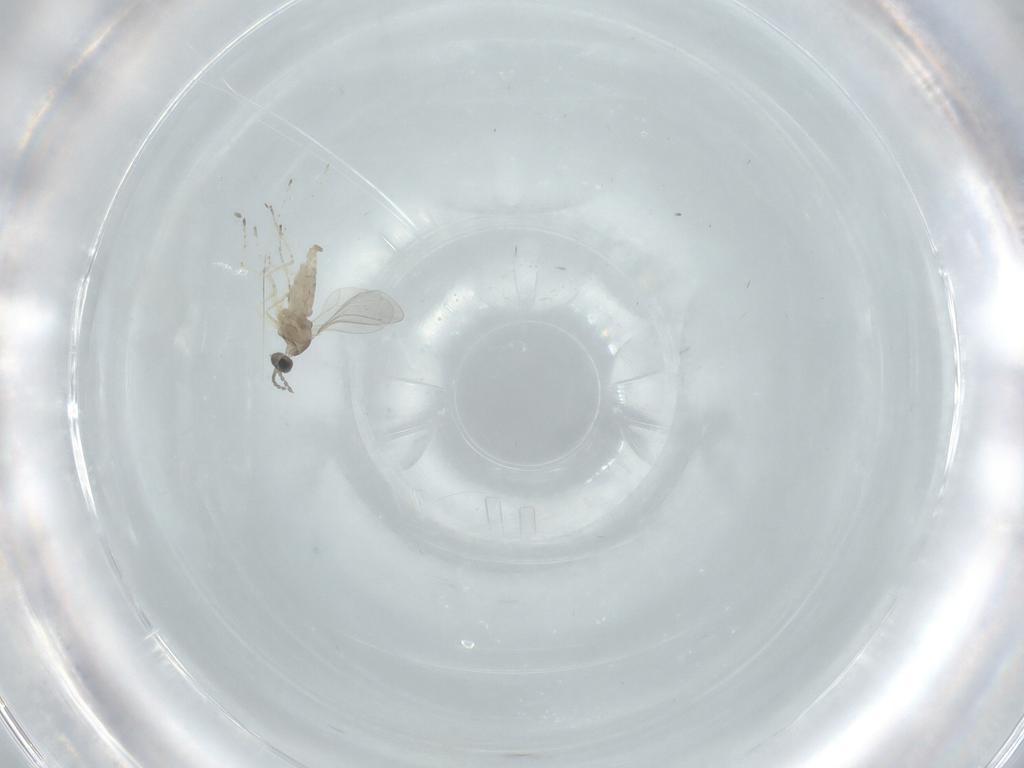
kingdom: Animalia
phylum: Arthropoda
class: Insecta
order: Diptera
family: Cecidomyiidae
